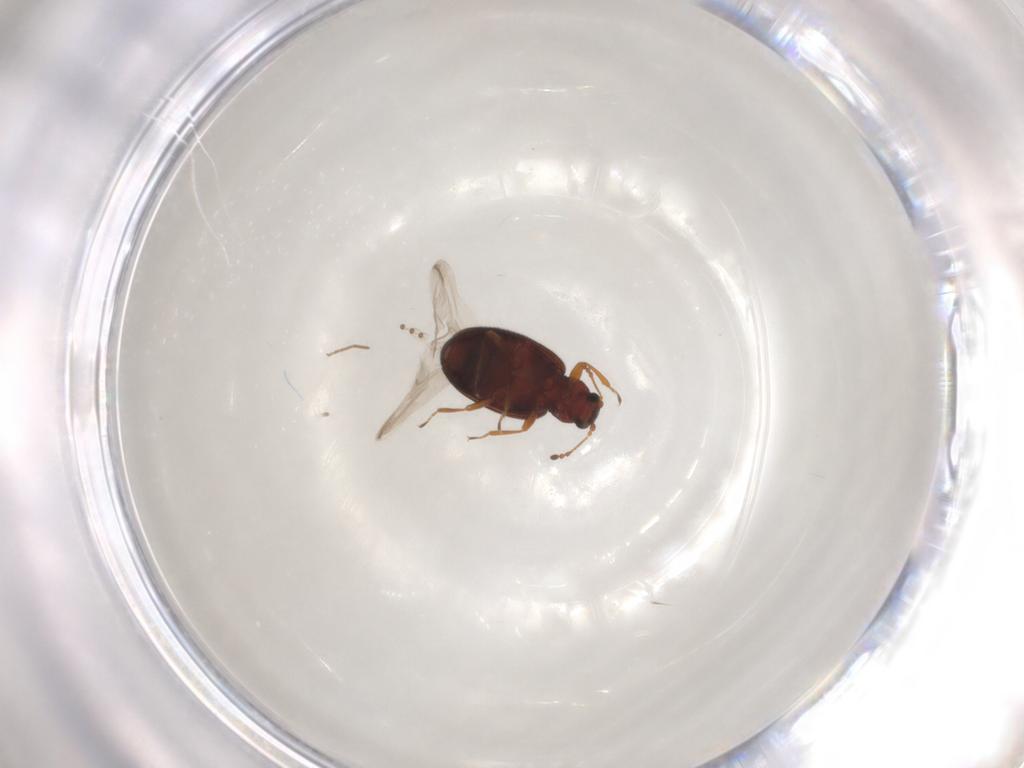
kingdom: Animalia
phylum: Arthropoda
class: Insecta
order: Coleoptera
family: Latridiidae
